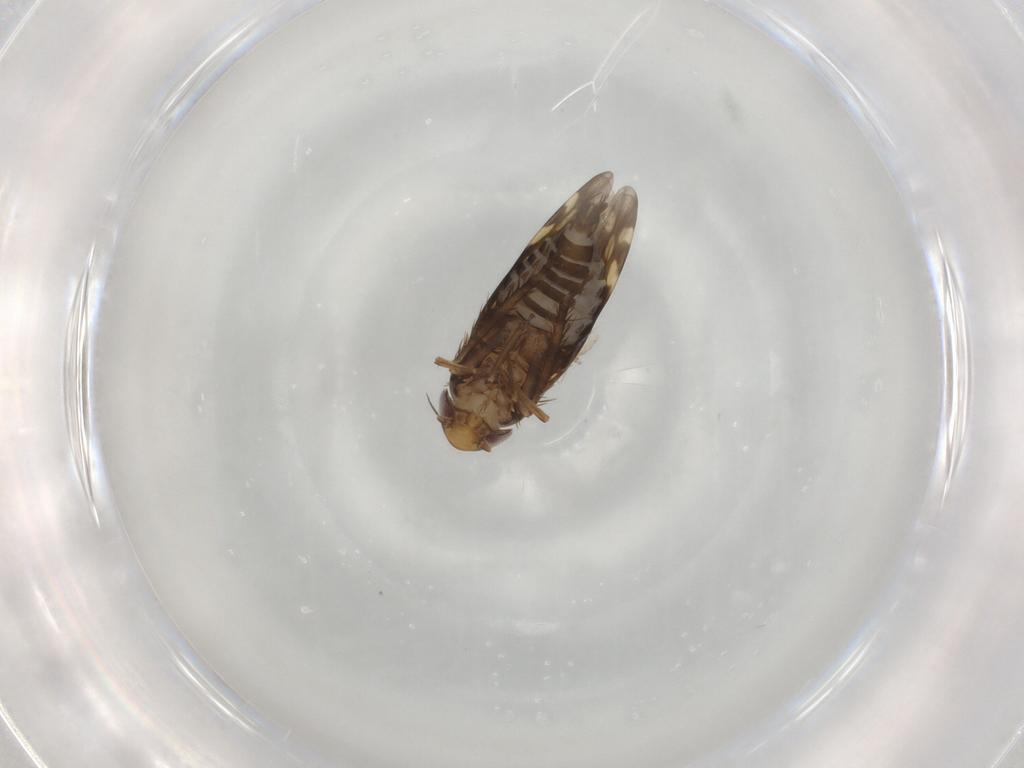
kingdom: Animalia
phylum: Arthropoda
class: Insecta
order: Hemiptera
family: Cicadellidae
